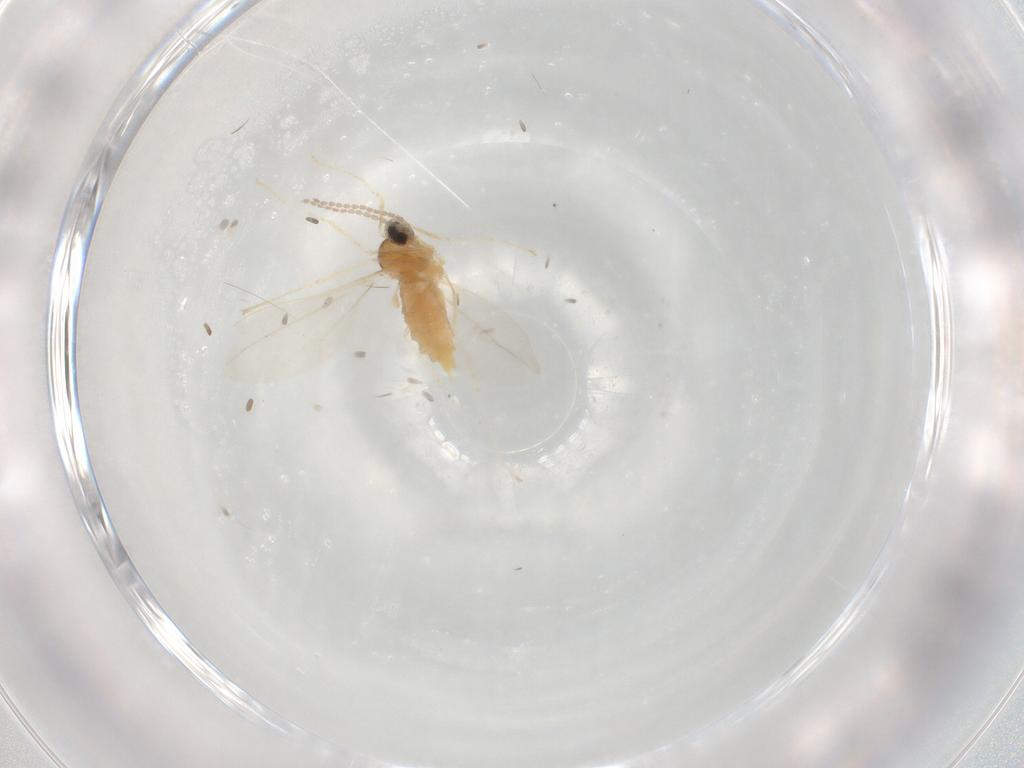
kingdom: Animalia
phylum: Arthropoda
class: Insecta
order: Diptera
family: Cecidomyiidae
